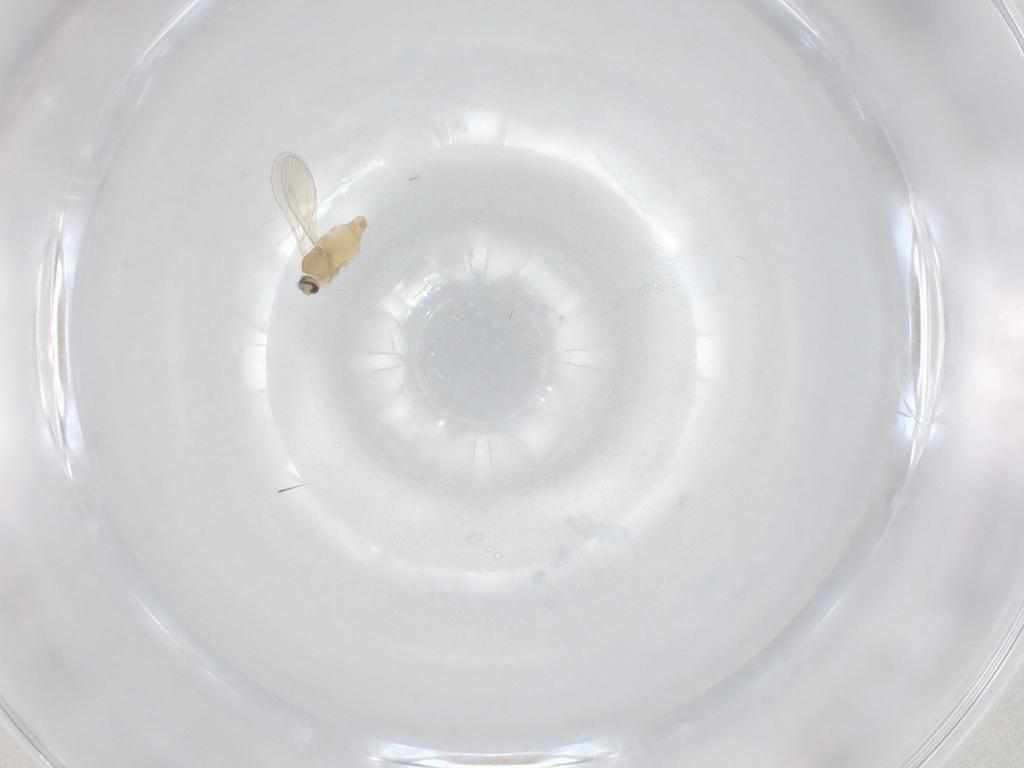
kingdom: Animalia
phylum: Arthropoda
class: Insecta
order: Diptera
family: Cecidomyiidae
